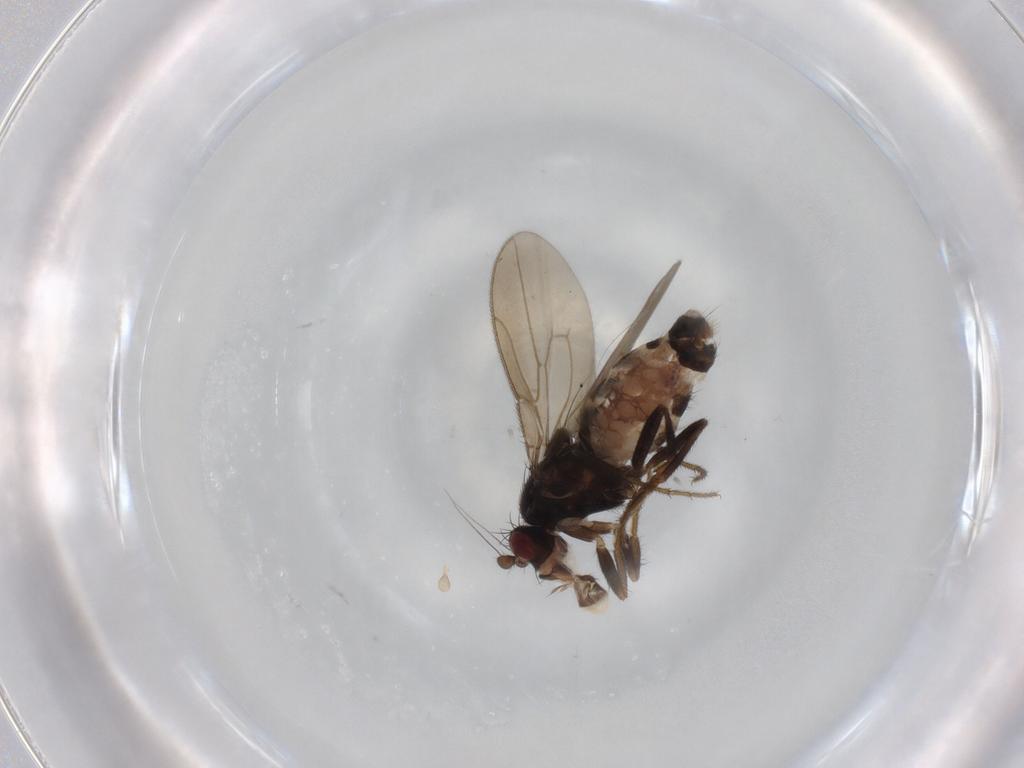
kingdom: Animalia
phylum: Arthropoda
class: Insecta
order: Diptera
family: Sphaeroceridae
